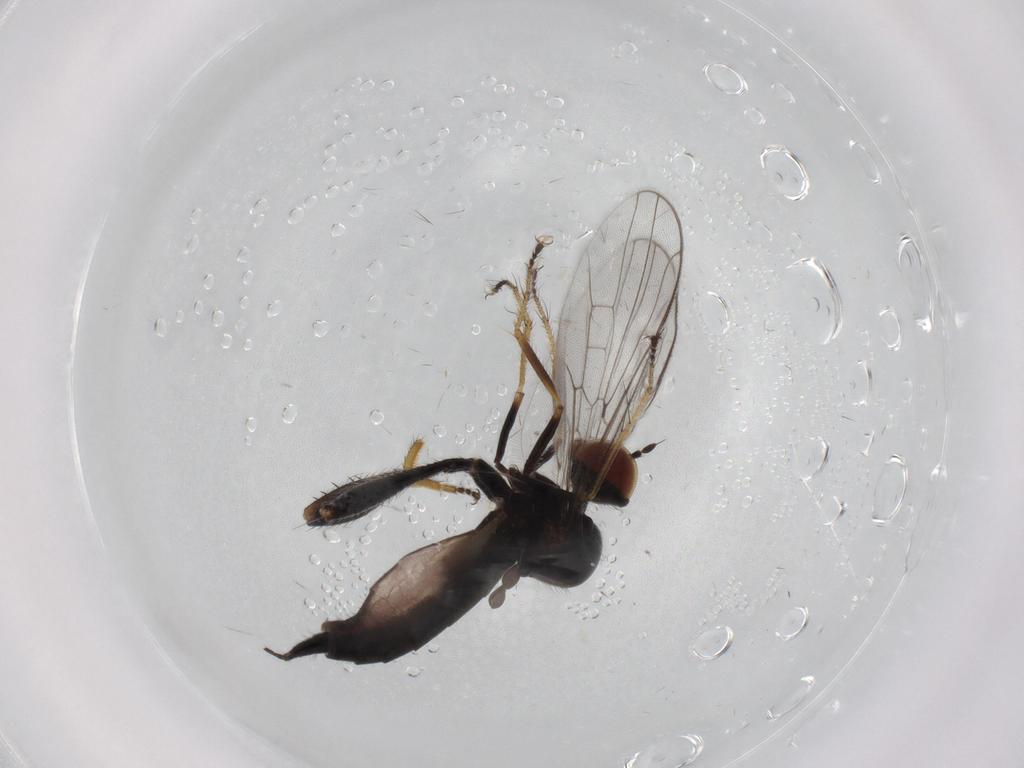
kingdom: Animalia
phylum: Arthropoda
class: Insecta
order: Diptera
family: Hybotidae
